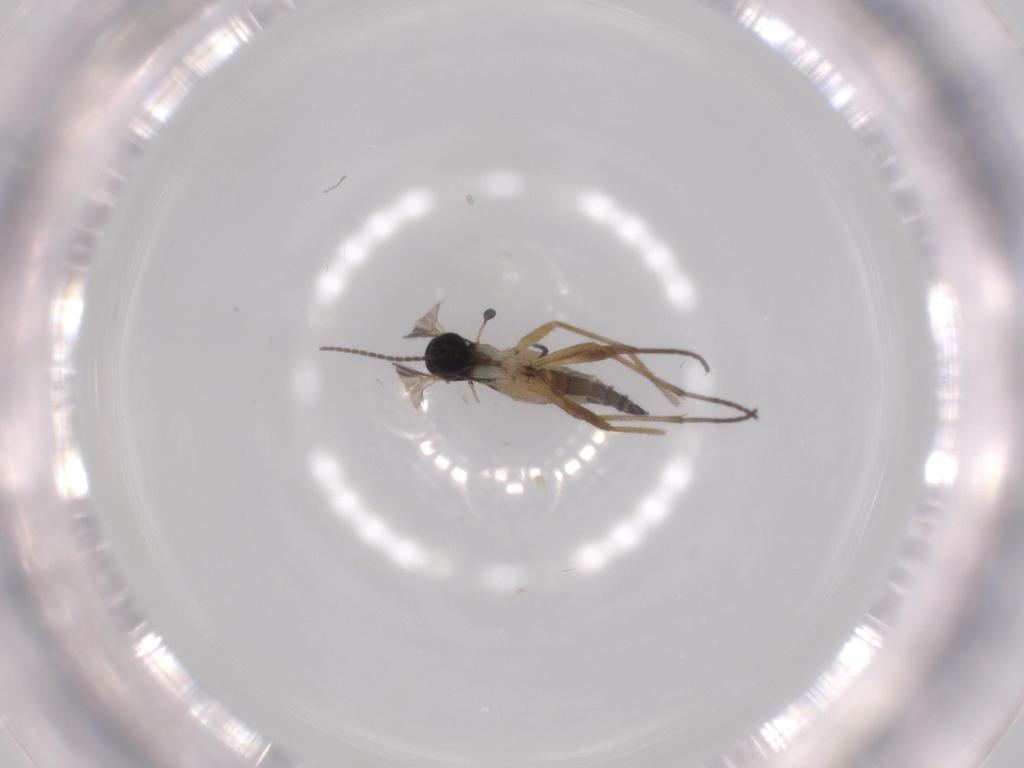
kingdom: Animalia
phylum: Arthropoda
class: Insecta
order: Diptera
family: Sciaridae
